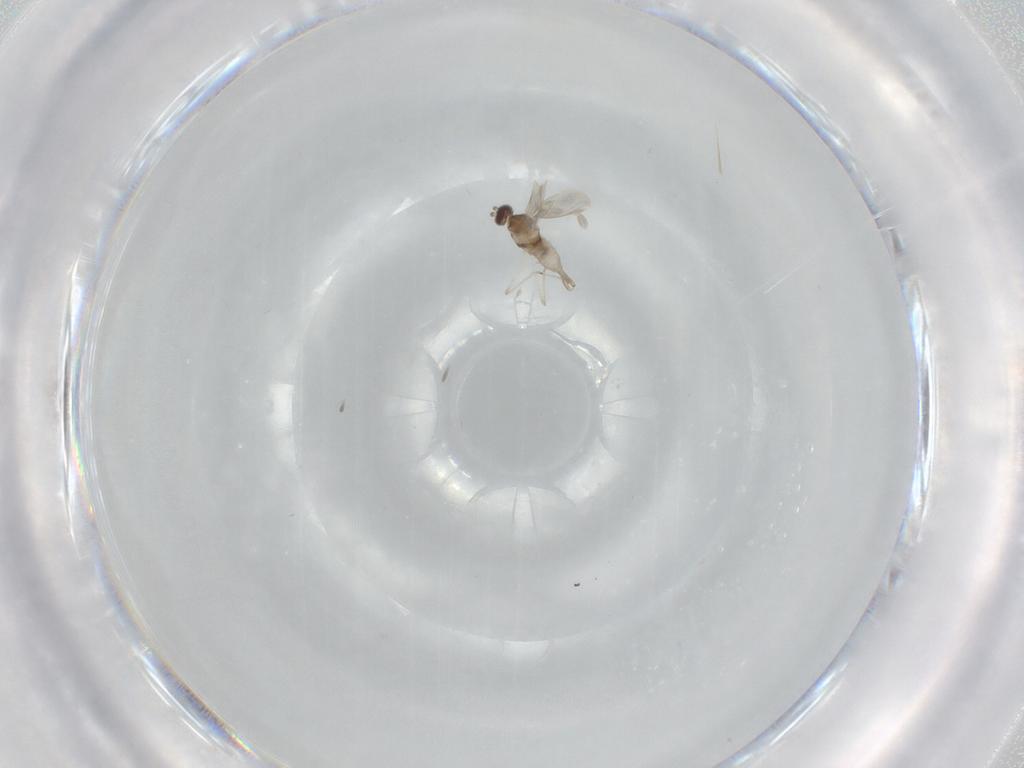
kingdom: Animalia
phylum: Arthropoda
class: Insecta
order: Diptera
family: Cecidomyiidae
